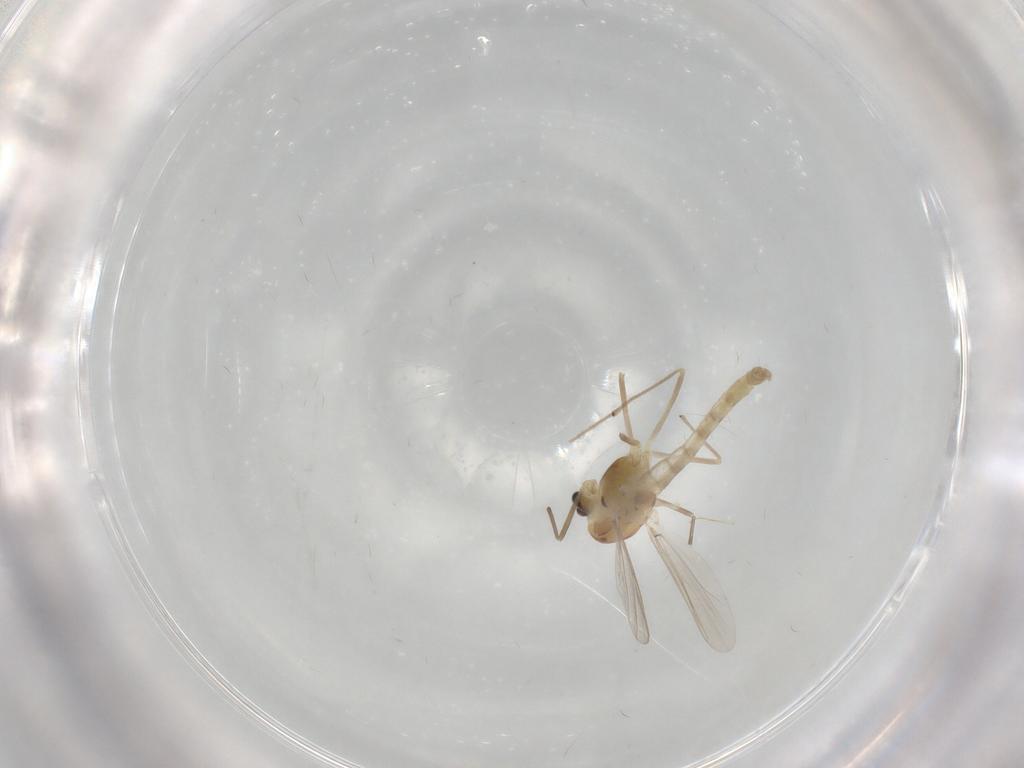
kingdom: Animalia
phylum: Arthropoda
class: Insecta
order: Diptera
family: Chironomidae
